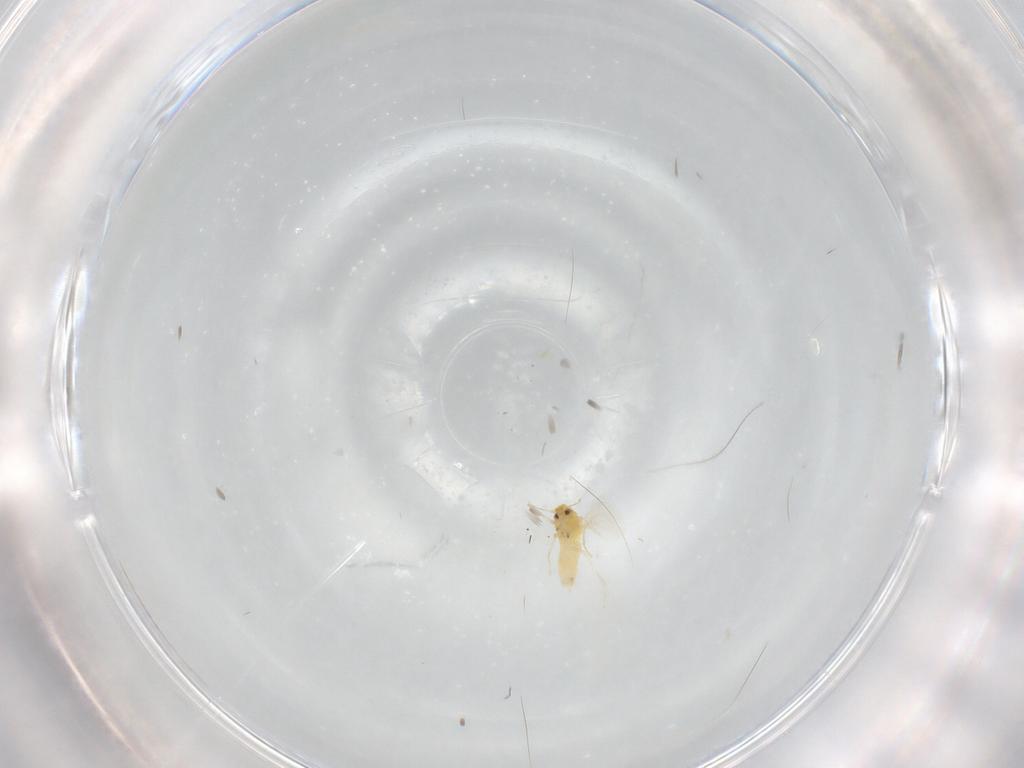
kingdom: Animalia
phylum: Arthropoda
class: Insecta
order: Hemiptera
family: Aleyrodidae
